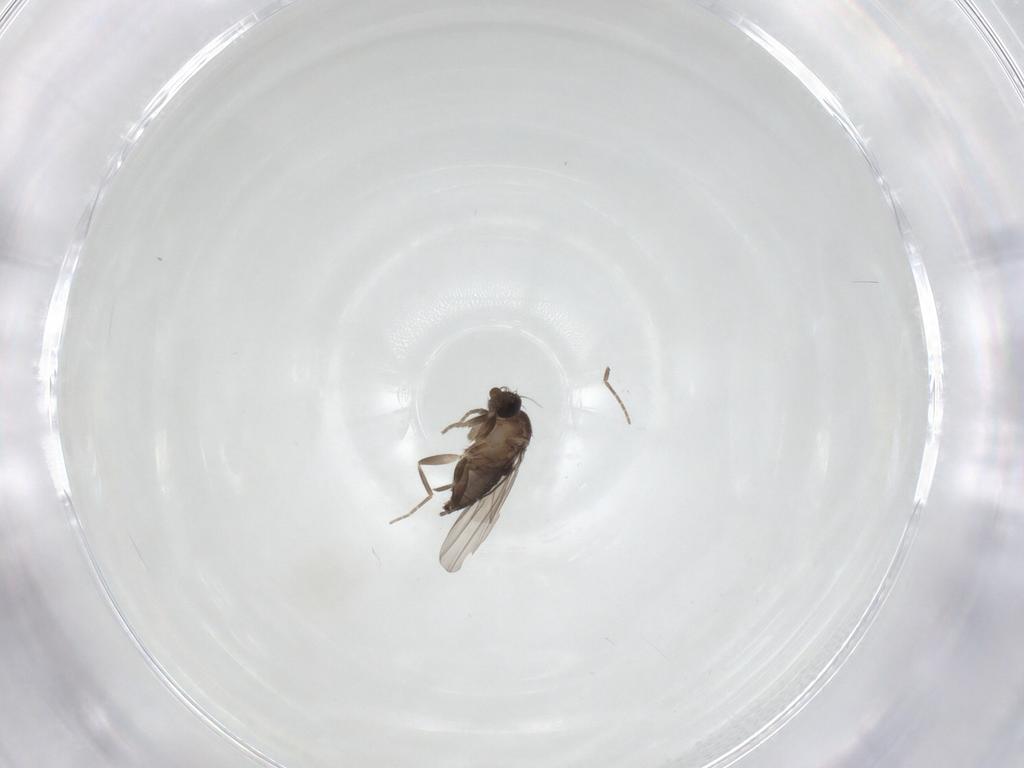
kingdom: Animalia
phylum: Arthropoda
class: Insecta
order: Diptera
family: Phoridae
